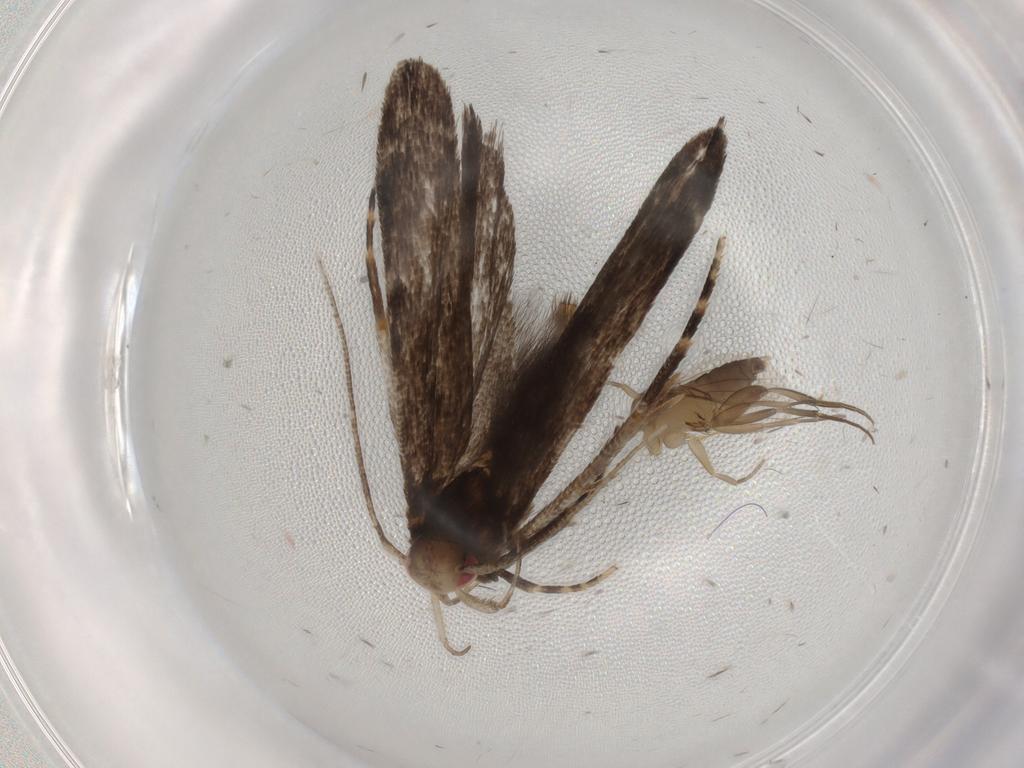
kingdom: Animalia
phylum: Arthropoda
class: Insecta
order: Diptera
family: Phoridae
